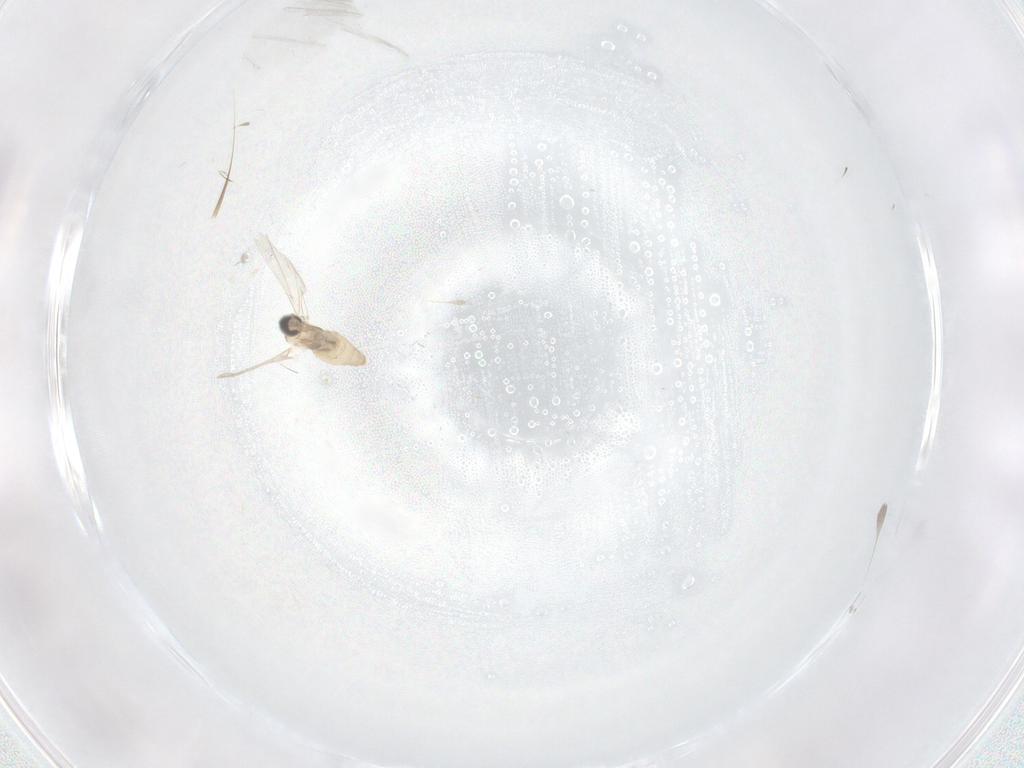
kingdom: Animalia
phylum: Arthropoda
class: Insecta
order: Diptera
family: Cecidomyiidae
